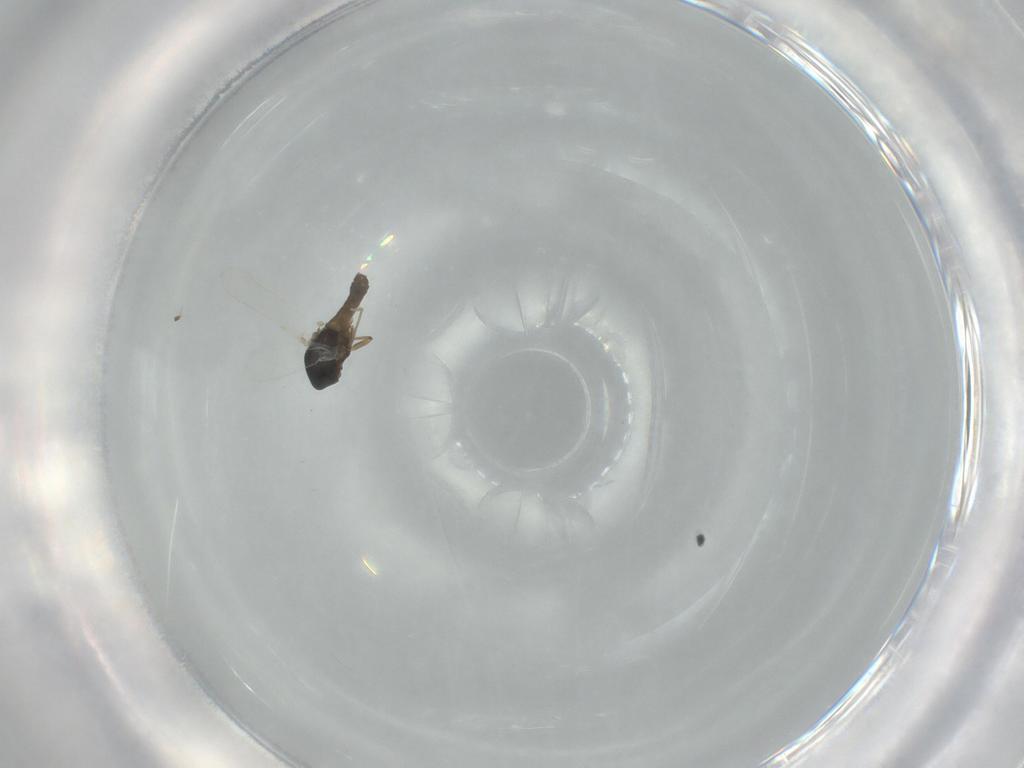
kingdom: Animalia
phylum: Arthropoda
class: Insecta
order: Diptera
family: Chironomidae
